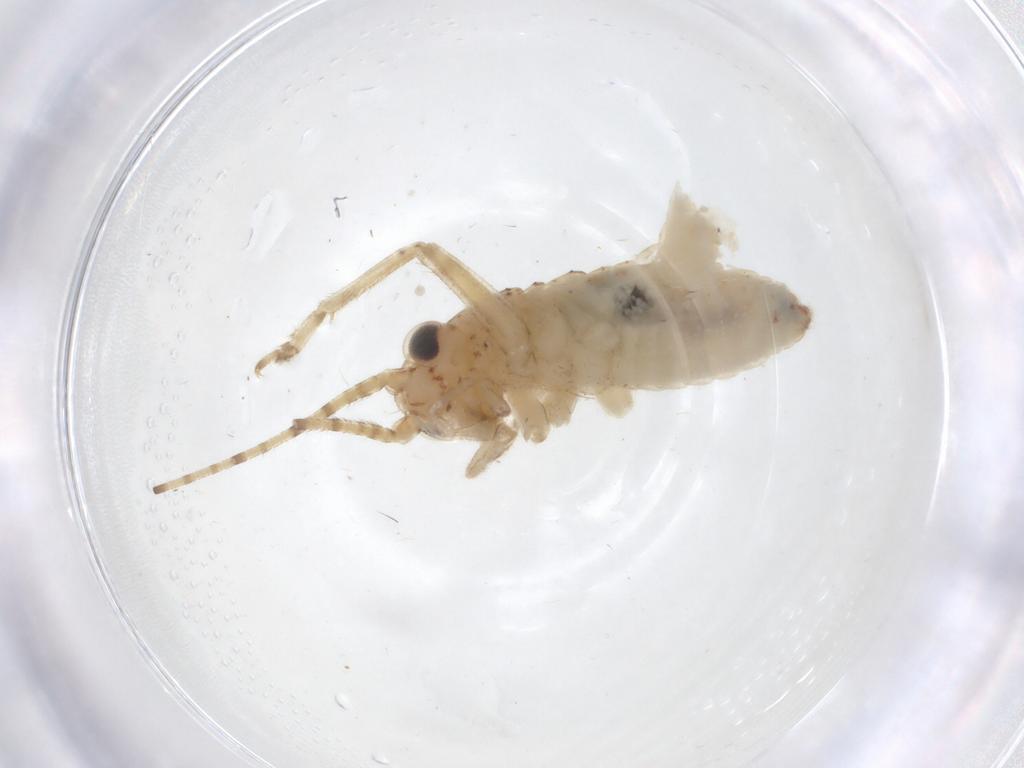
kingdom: Animalia
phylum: Arthropoda
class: Insecta
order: Orthoptera
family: Trigonidiidae
